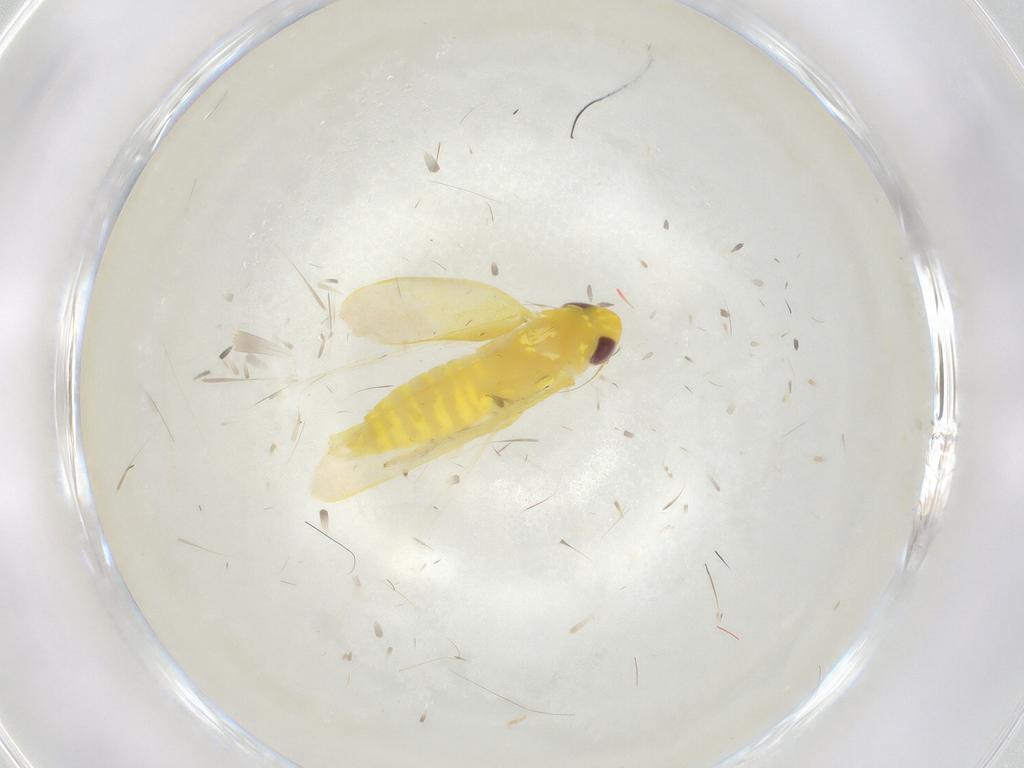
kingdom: Animalia
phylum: Arthropoda
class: Insecta
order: Hemiptera
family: Cicadellidae
